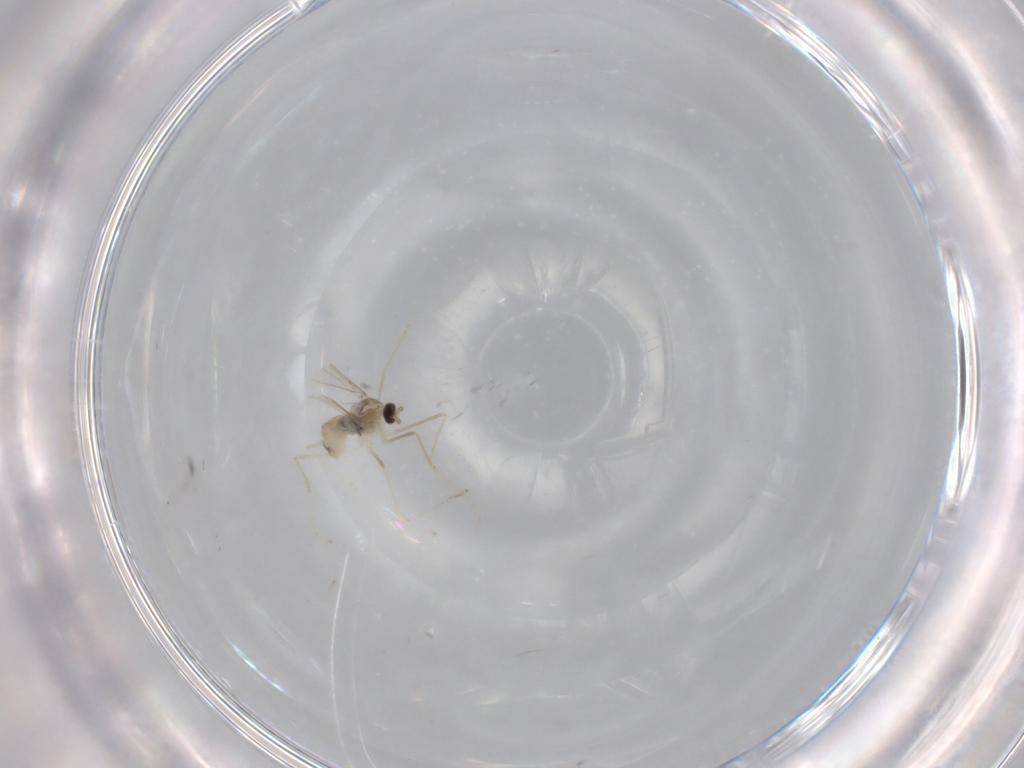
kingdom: Animalia
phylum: Arthropoda
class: Insecta
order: Diptera
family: Cecidomyiidae
